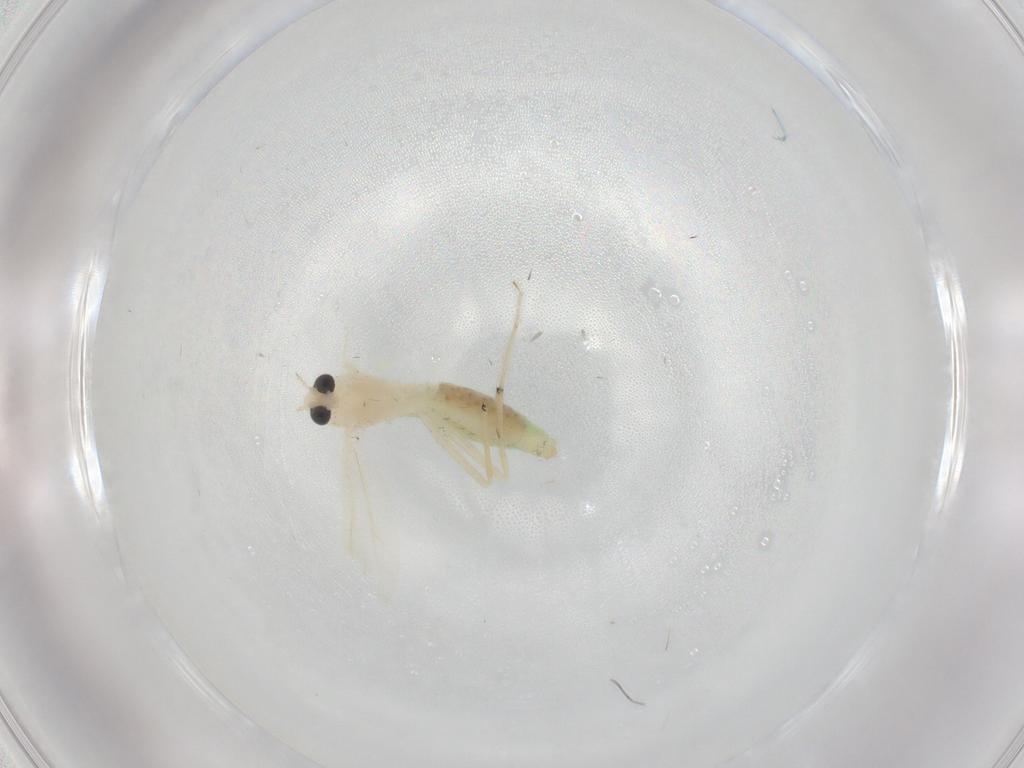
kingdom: Animalia
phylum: Arthropoda
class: Insecta
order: Diptera
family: Chironomidae
